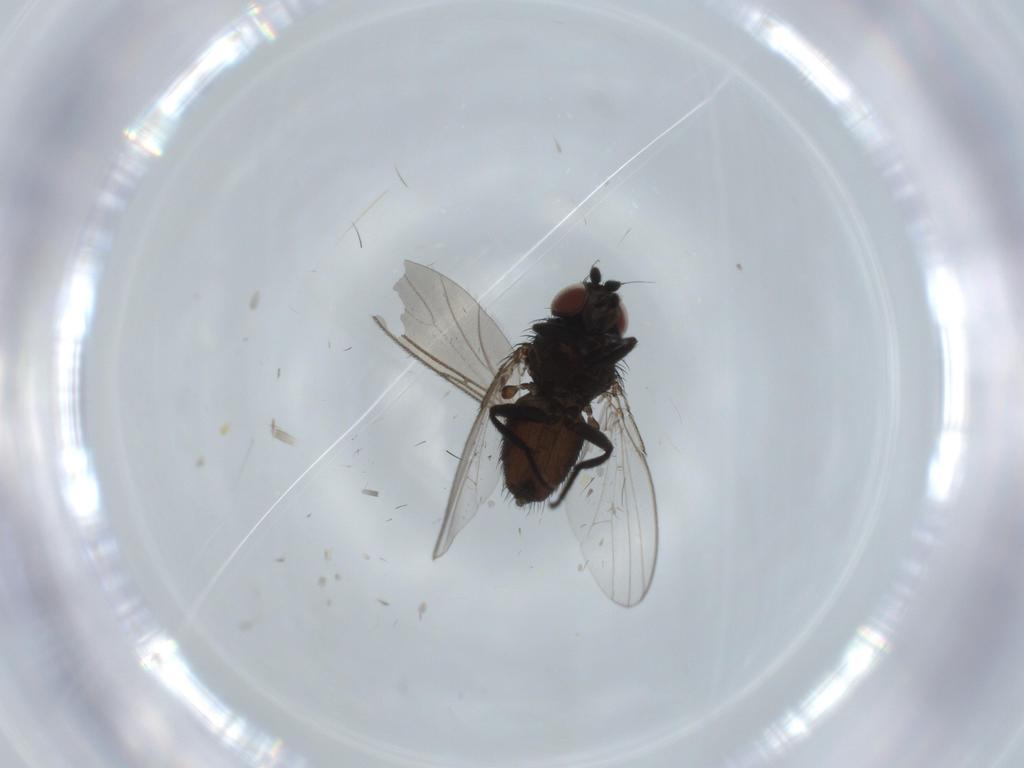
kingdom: Animalia
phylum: Arthropoda
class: Insecta
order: Diptera
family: Milichiidae
